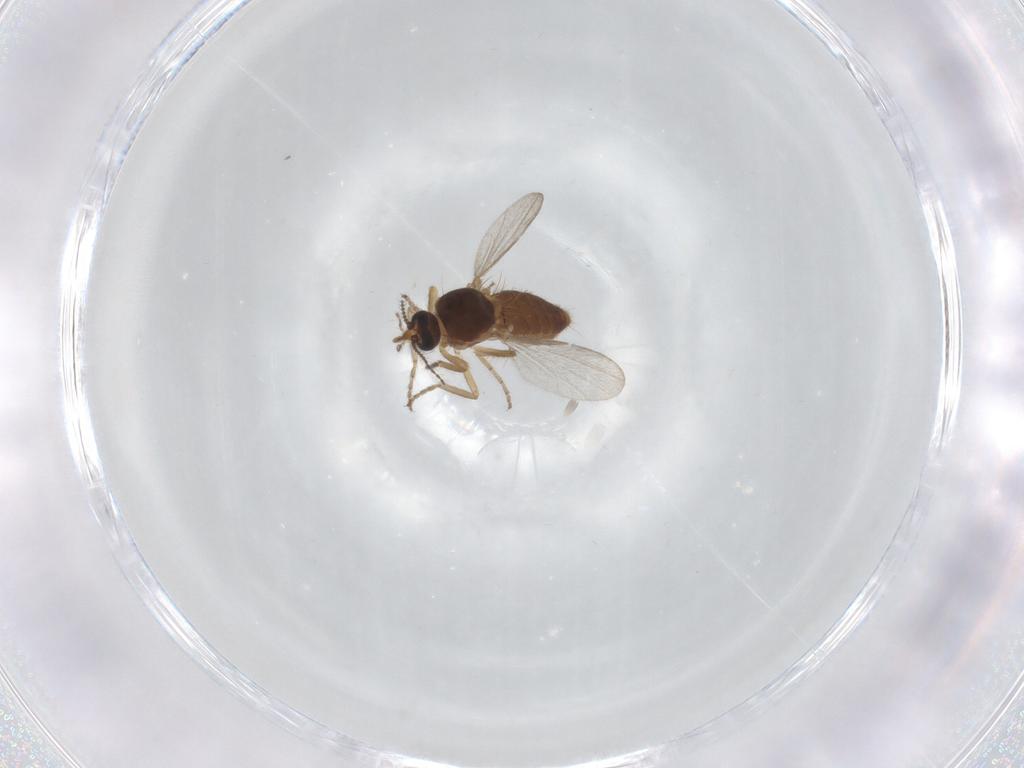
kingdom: Animalia
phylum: Arthropoda
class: Insecta
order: Diptera
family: Ceratopogonidae
